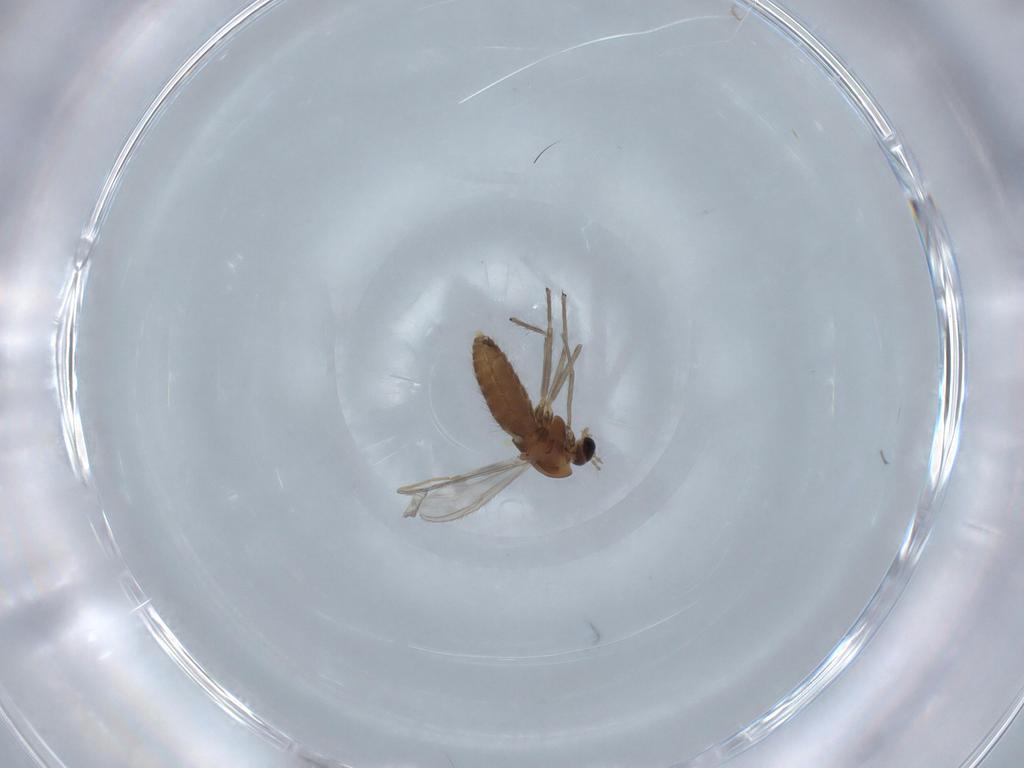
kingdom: Animalia
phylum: Arthropoda
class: Insecta
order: Diptera
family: Chironomidae
